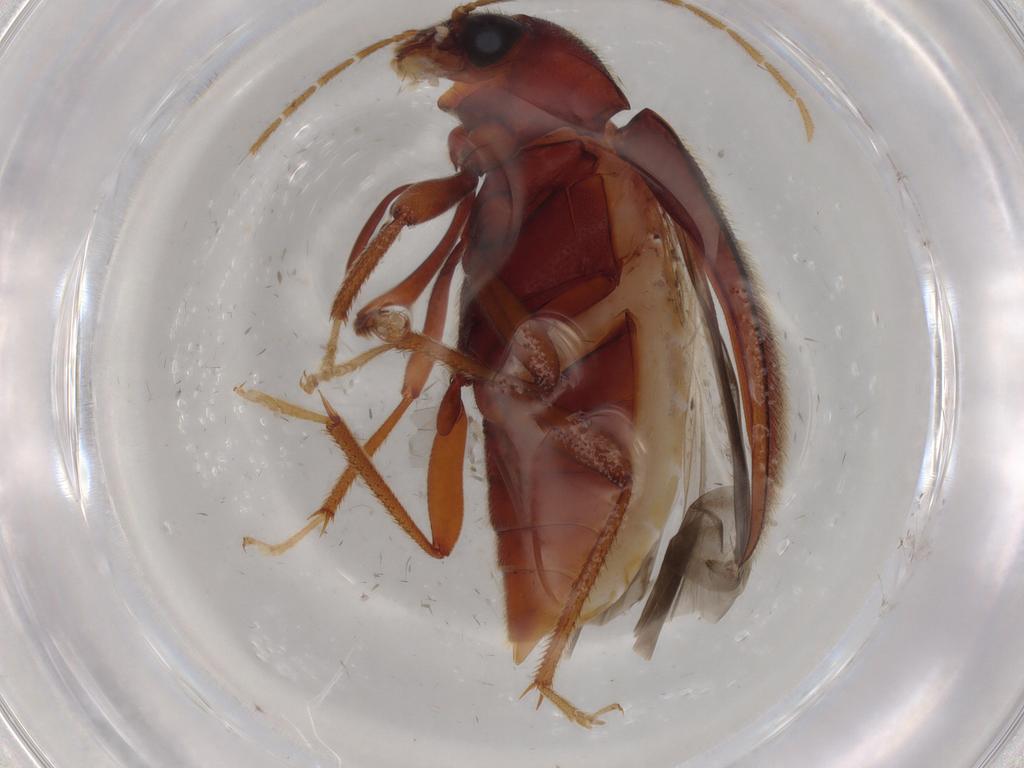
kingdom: Animalia
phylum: Arthropoda
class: Insecta
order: Coleoptera
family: Ptilodactylidae
